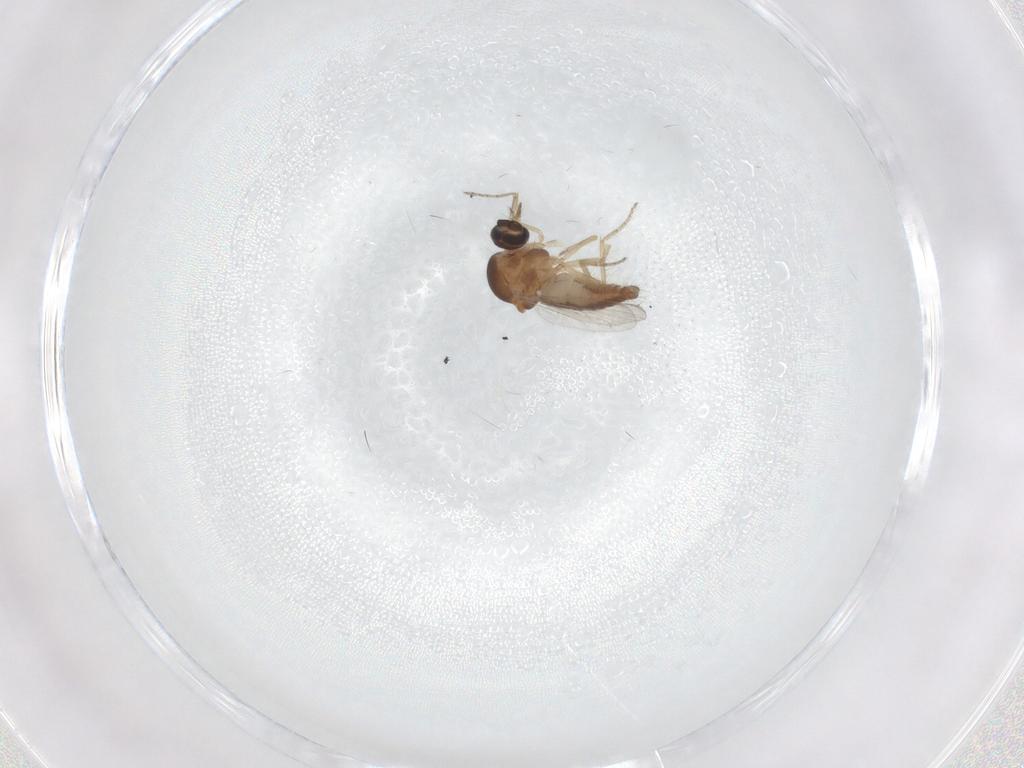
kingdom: Animalia
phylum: Arthropoda
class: Insecta
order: Diptera
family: Ceratopogonidae
